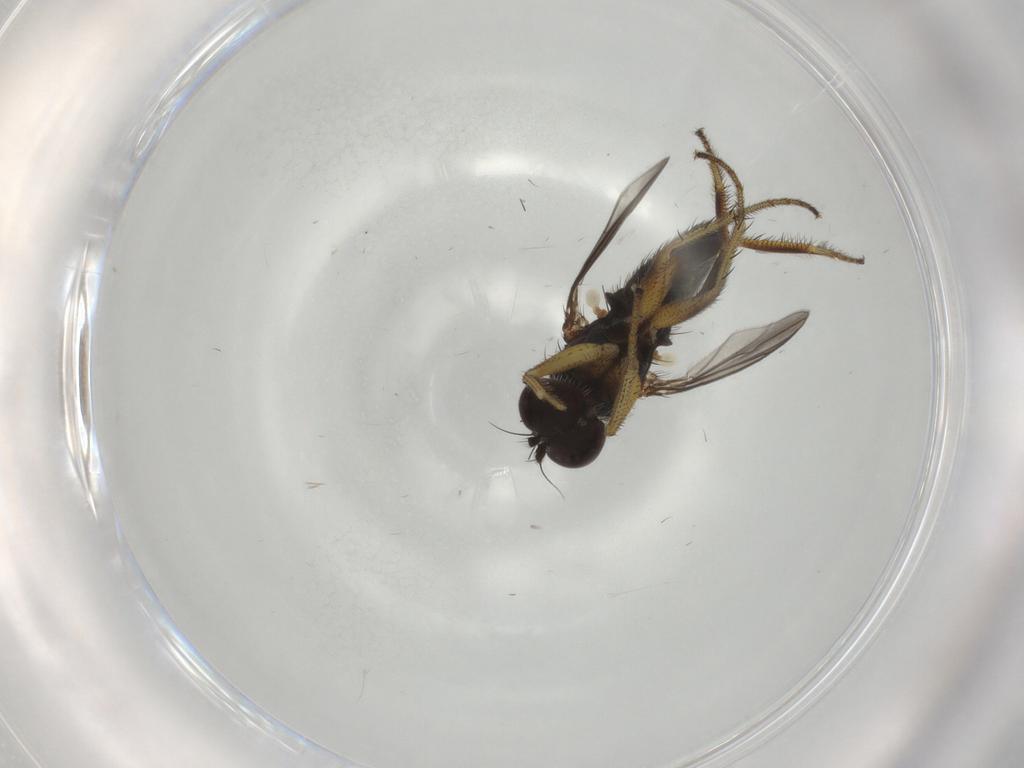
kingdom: Animalia
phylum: Arthropoda
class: Insecta
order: Diptera
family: Dolichopodidae
